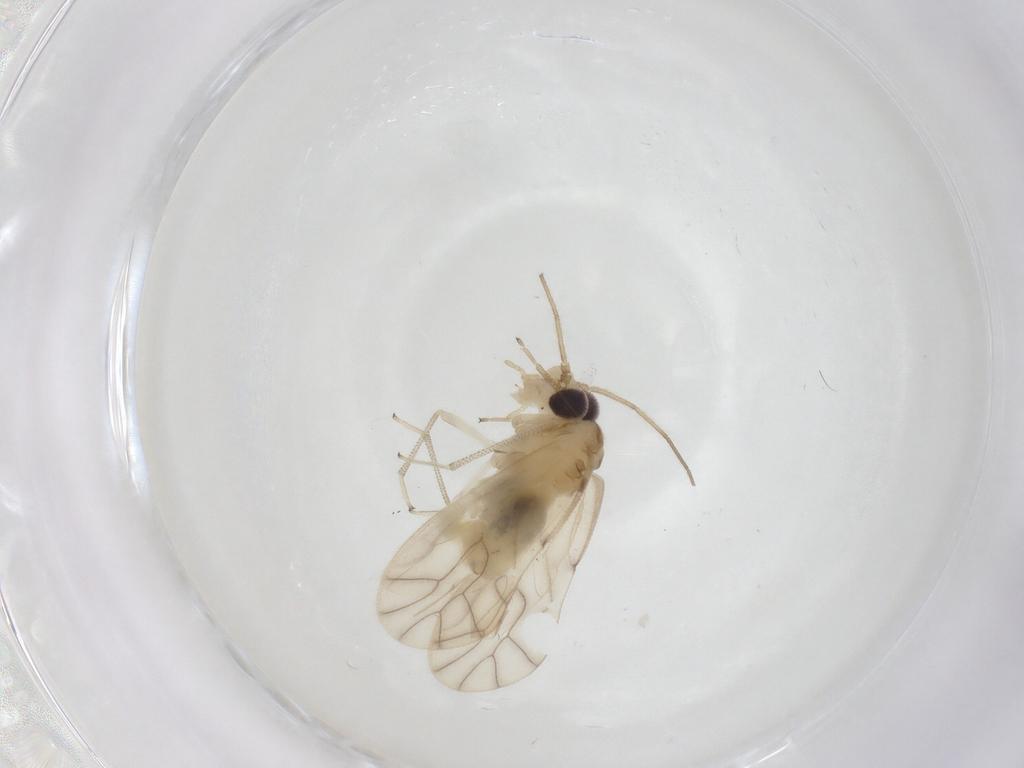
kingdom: Animalia
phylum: Arthropoda
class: Insecta
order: Psocodea
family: Caeciliusidae
